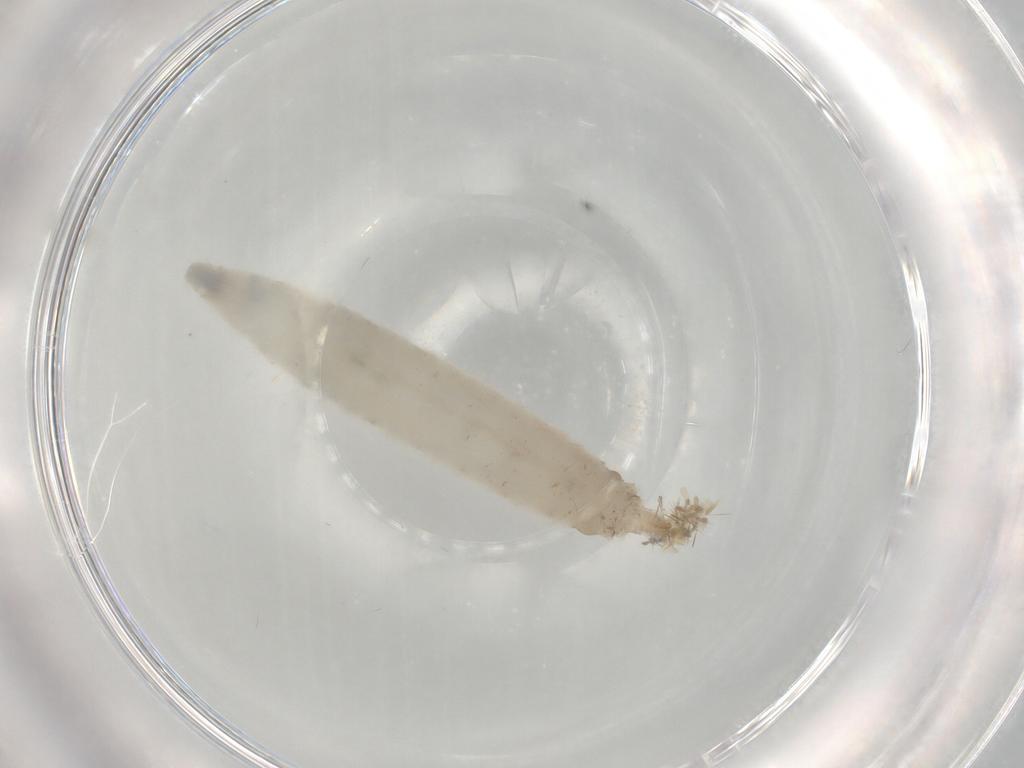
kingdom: Animalia
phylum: Arthropoda
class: Insecta
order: Diptera
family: Drosophilidae
